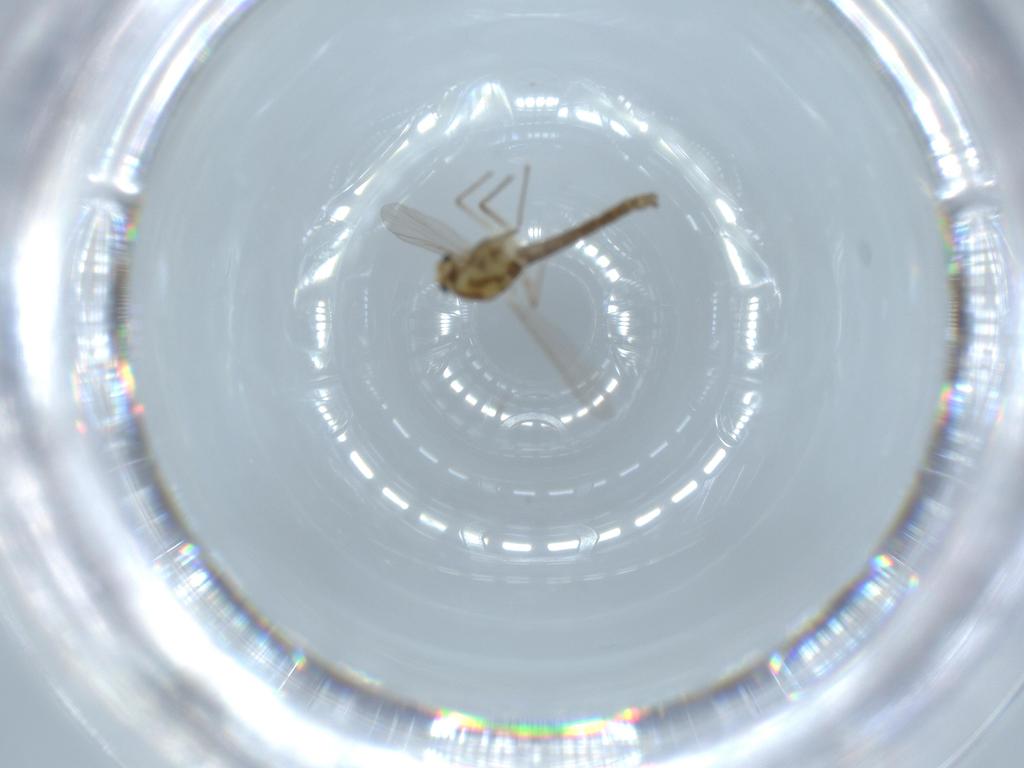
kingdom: Animalia
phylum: Arthropoda
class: Insecta
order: Diptera
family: Chironomidae
